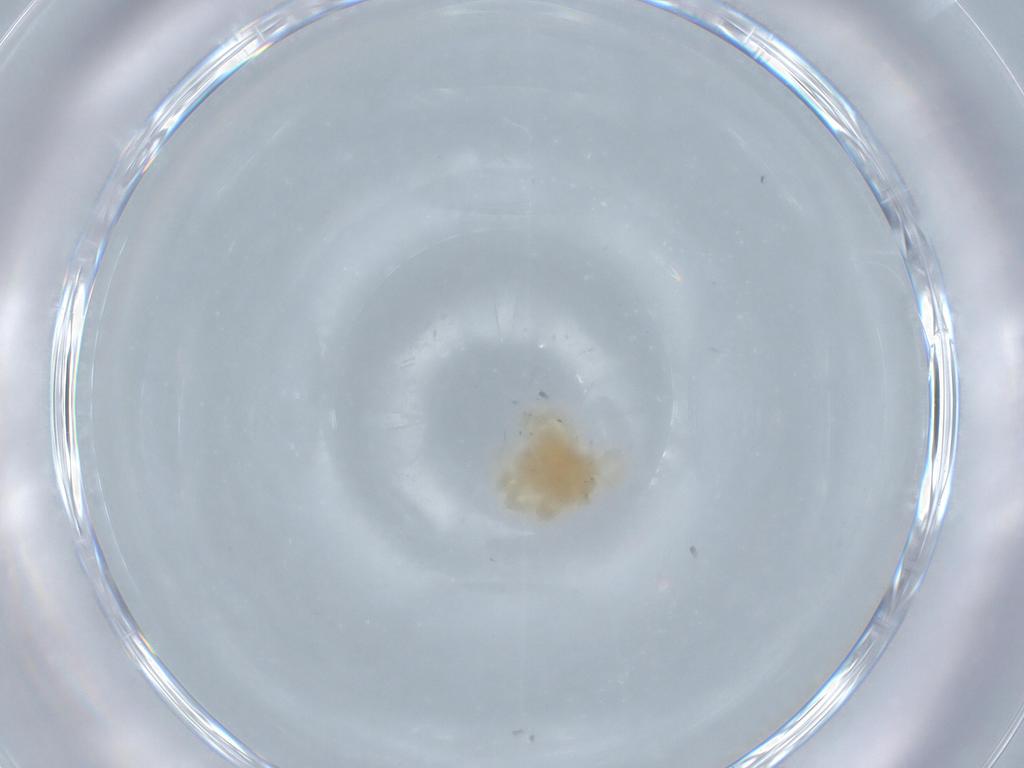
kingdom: Animalia
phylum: Arthropoda
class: Arachnida
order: Trombidiformes
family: Anystidae
